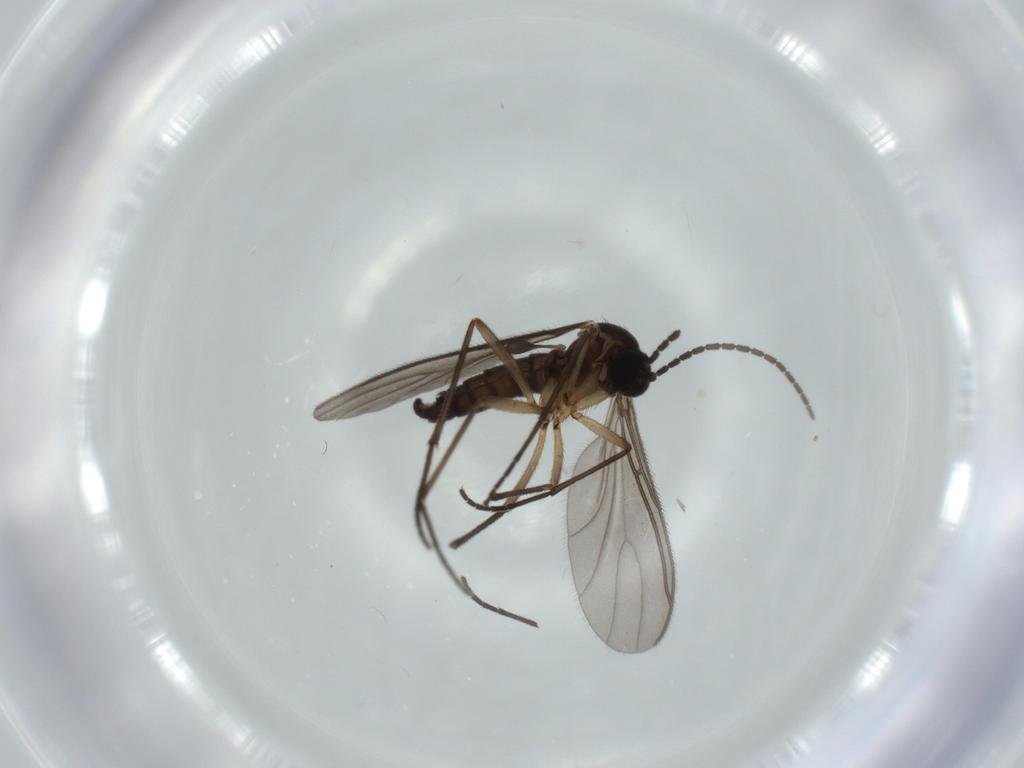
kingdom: Animalia
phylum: Arthropoda
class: Insecta
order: Diptera
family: Sciaridae
